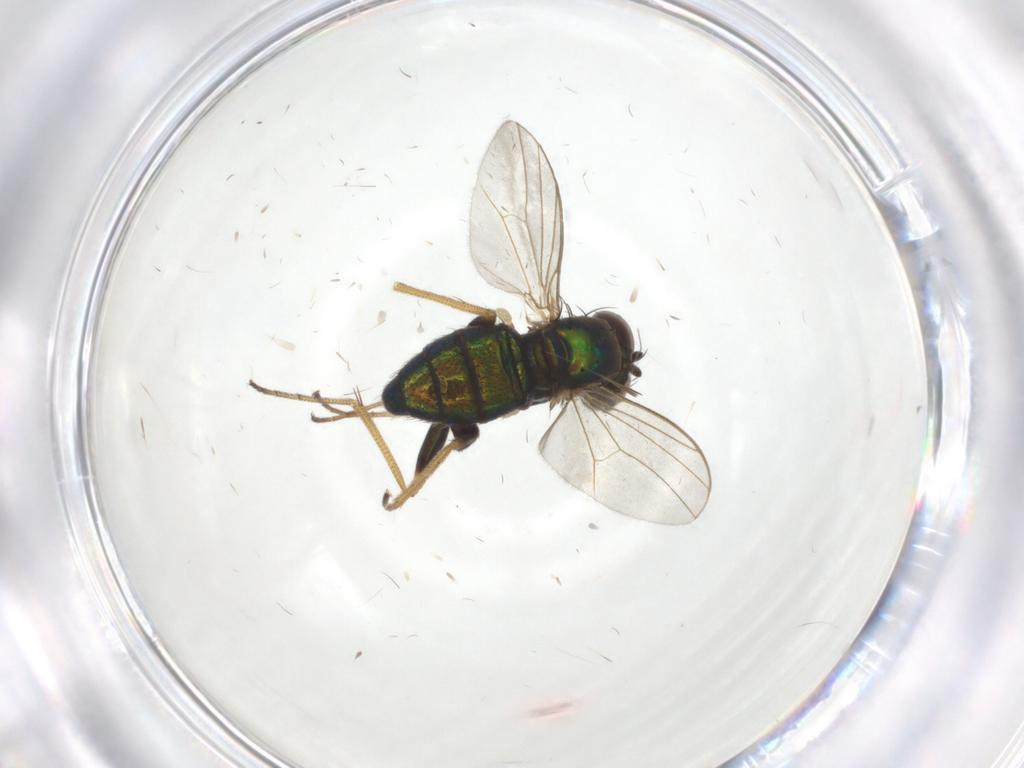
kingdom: Animalia
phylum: Arthropoda
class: Insecta
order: Diptera
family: Dolichopodidae
